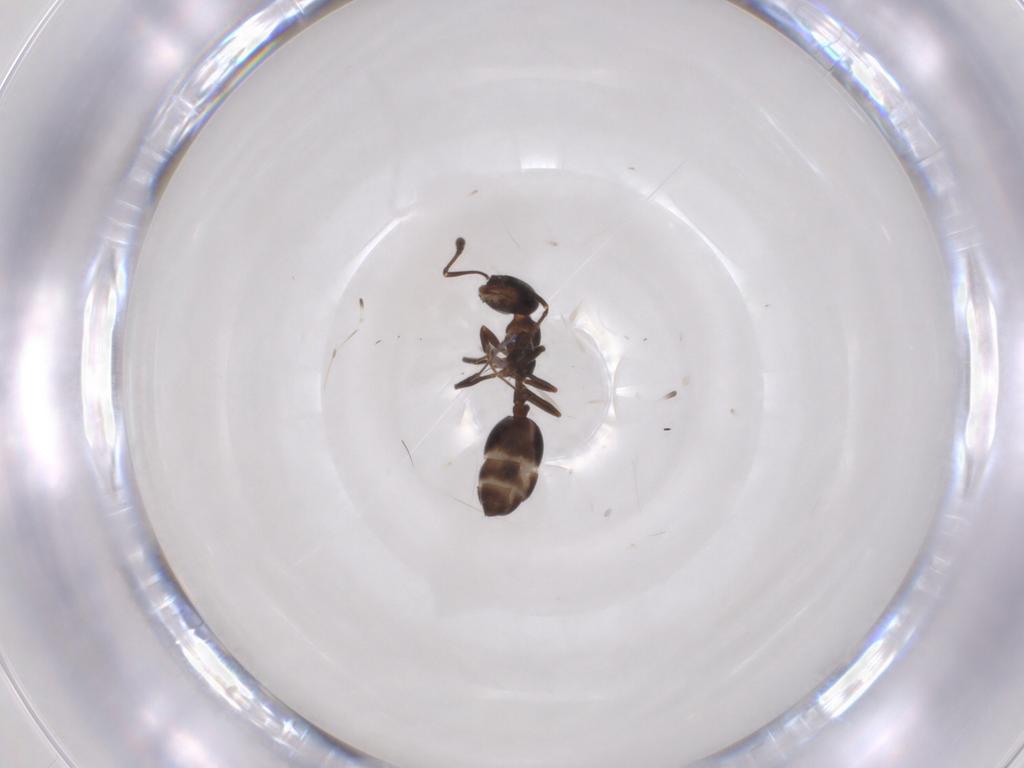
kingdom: Animalia
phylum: Arthropoda
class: Insecta
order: Hymenoptera
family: Formicidae
